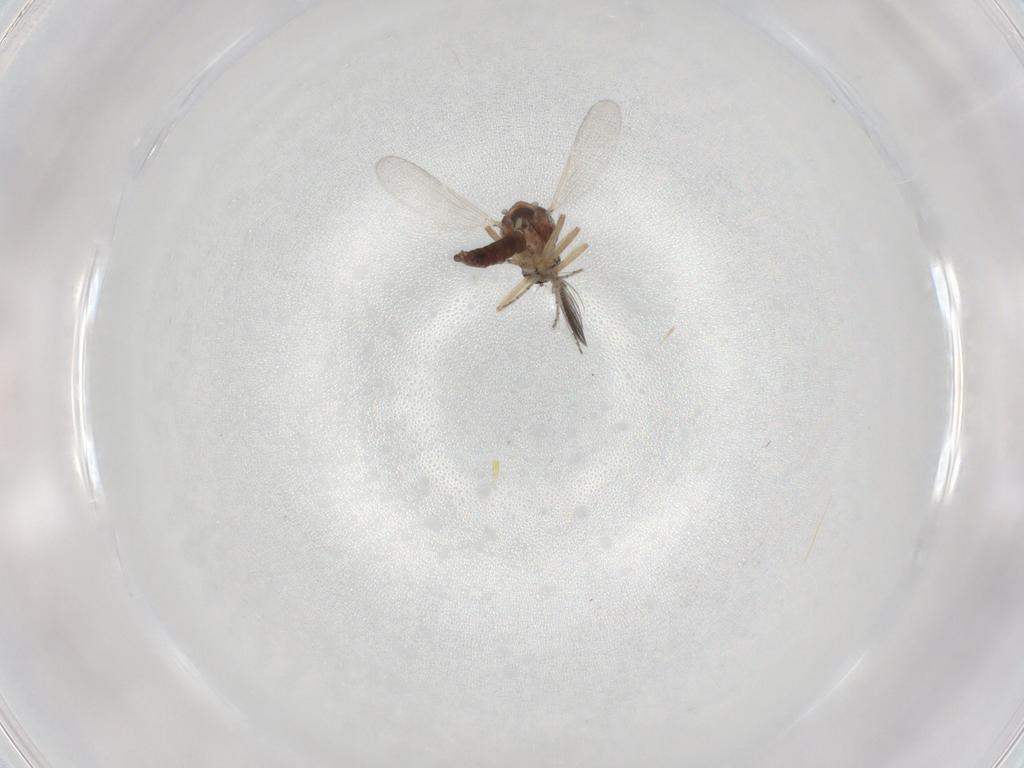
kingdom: Animalia
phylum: Arthropoda
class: Insecta
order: Diptera
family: Ceratopogonidae
